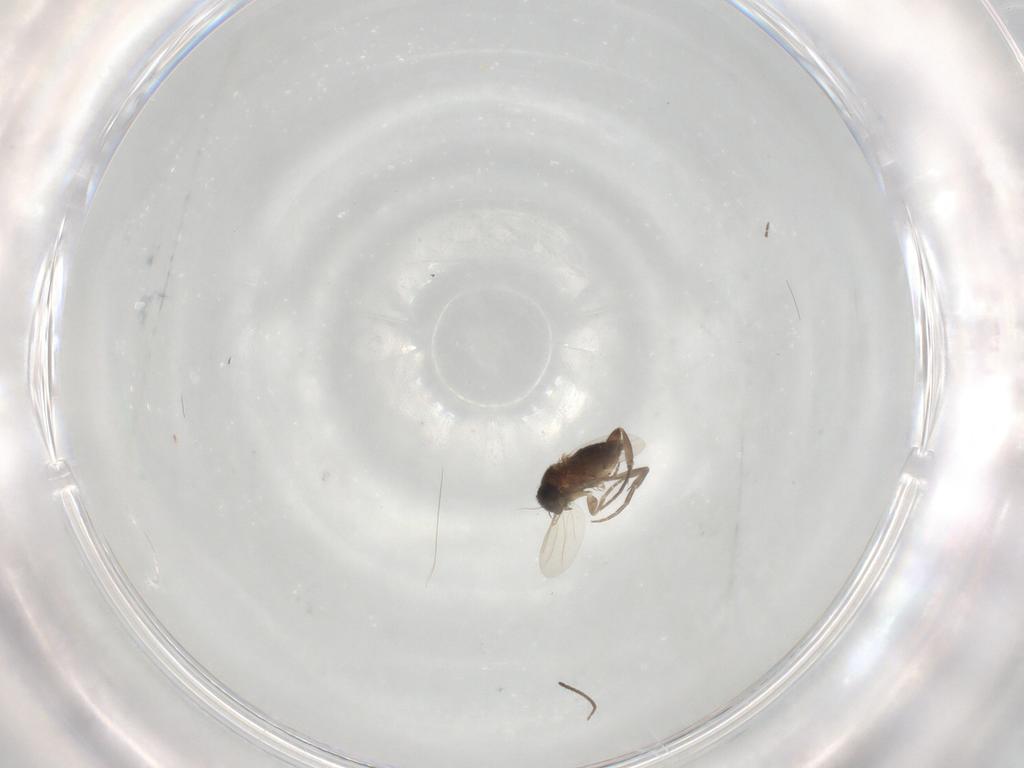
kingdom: Animalia
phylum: Arthropoda
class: Insecta
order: Diptera
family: Cecidomyiidae
